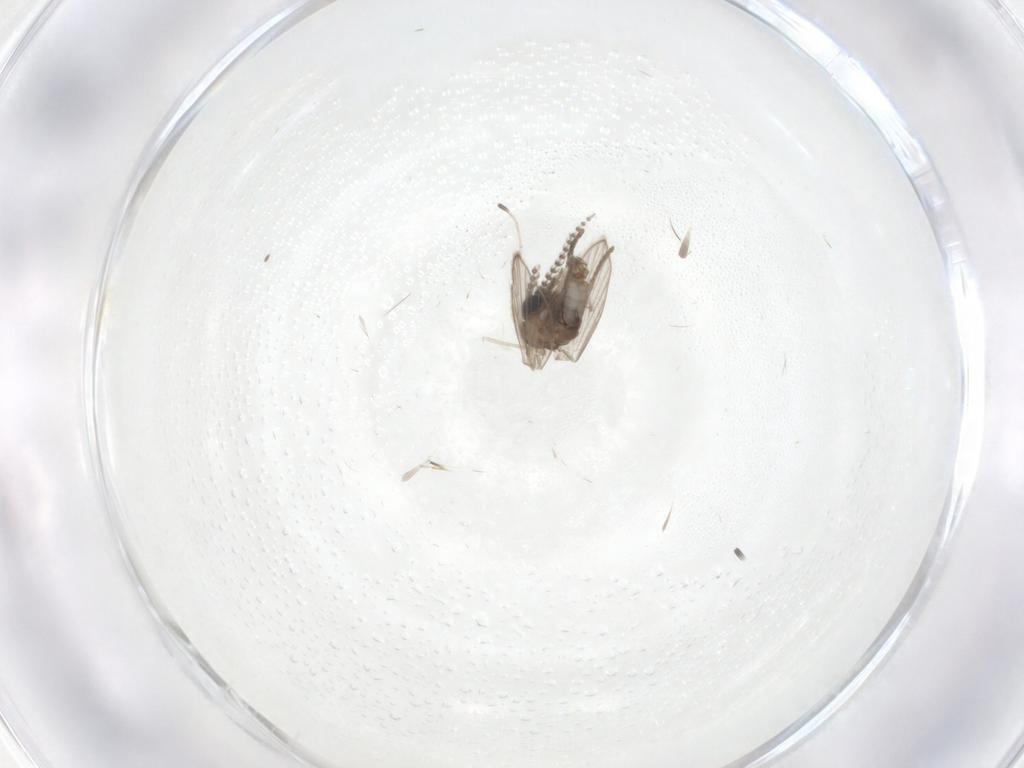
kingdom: Animalia
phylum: Arthropoda
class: Insecta
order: Diptera
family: Psychodidae
